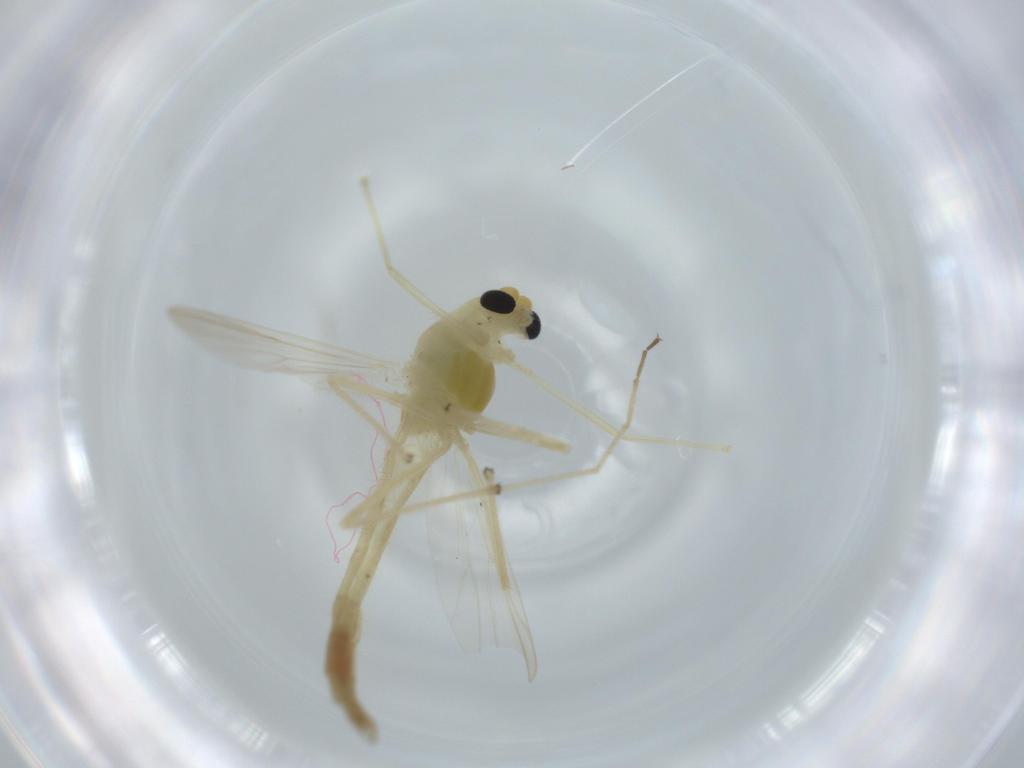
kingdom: Animalia
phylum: Arthropoda
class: Insecta
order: Diptera
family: Chironomidae
